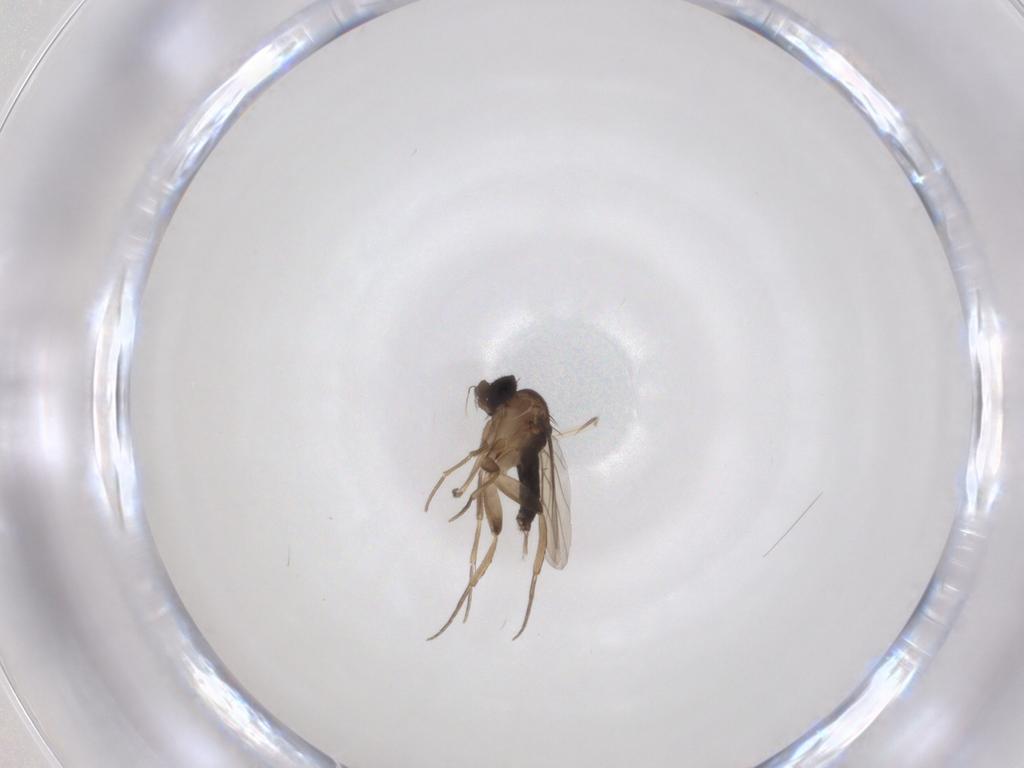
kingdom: Animalia
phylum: Arthropoda
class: Insecta
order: Diptera
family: Phoridae
